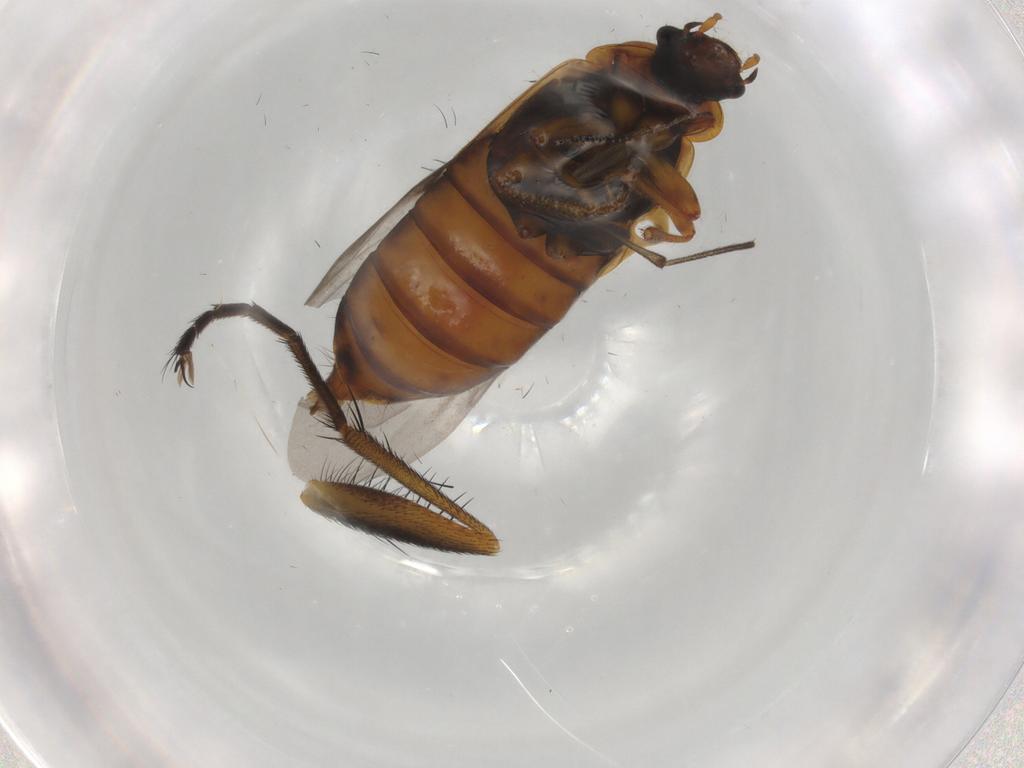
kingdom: Animalia
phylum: Arthropoda
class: Insecta
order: Coleoptera
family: Staphylinidae
